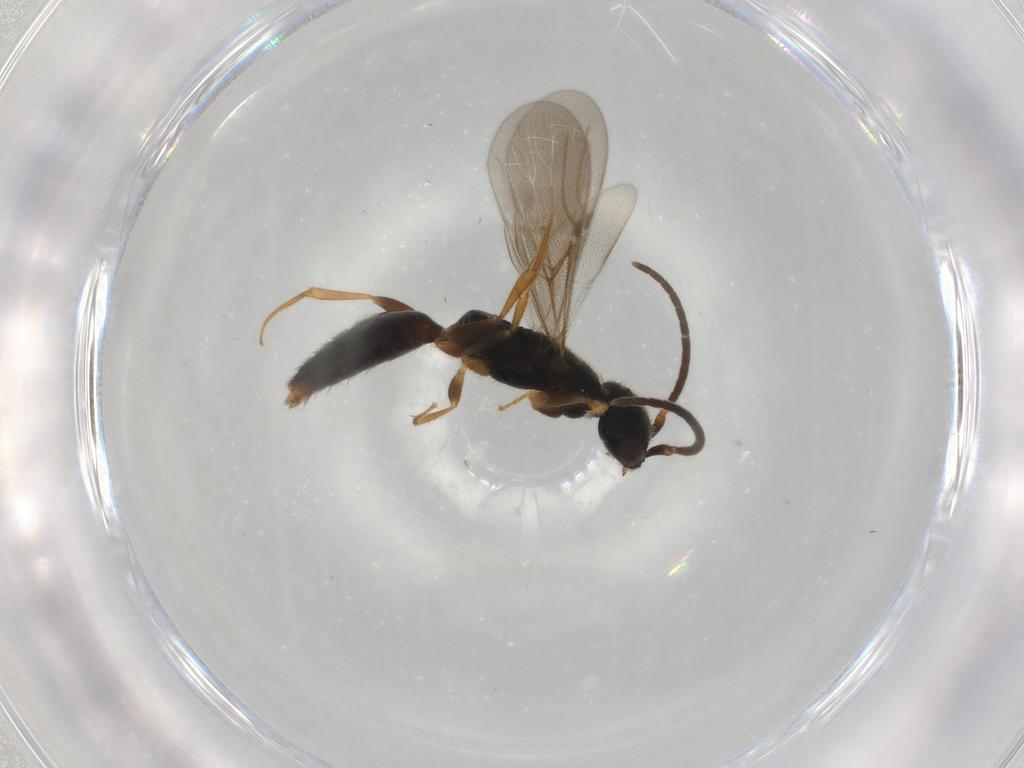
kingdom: Animalia
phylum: Arthropoda
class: Insecta
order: Hymenoptera
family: Bethylidae
